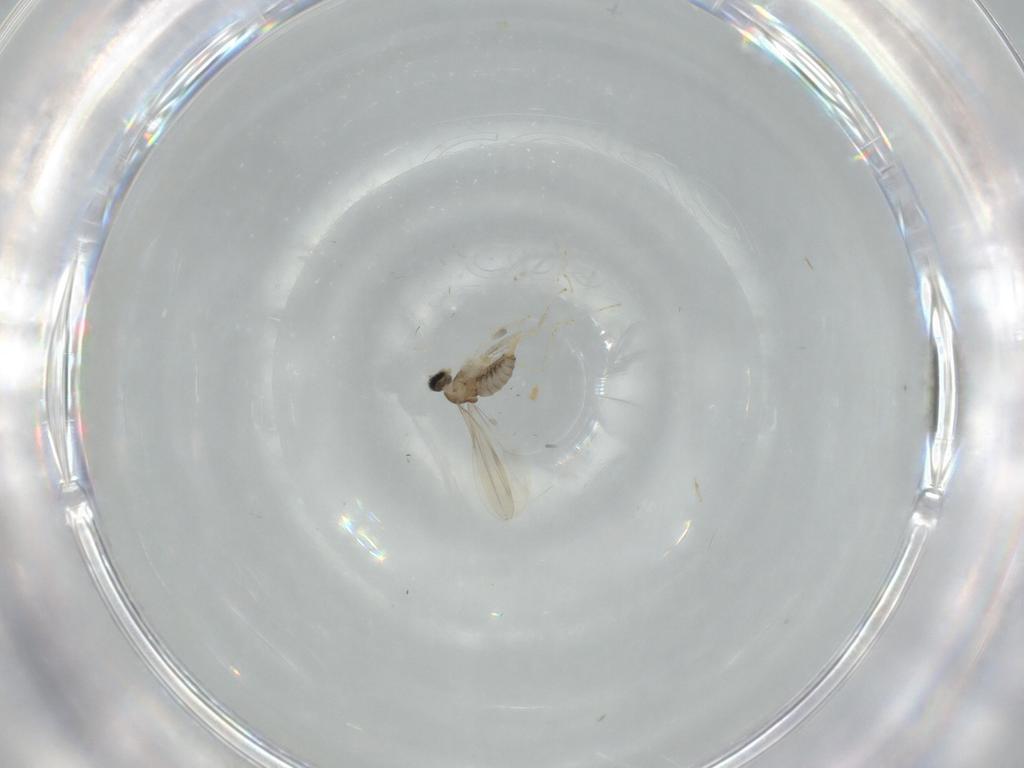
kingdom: Animalia
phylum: Arthropoda
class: Insecta
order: Diptera
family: Cecidomyiidae
